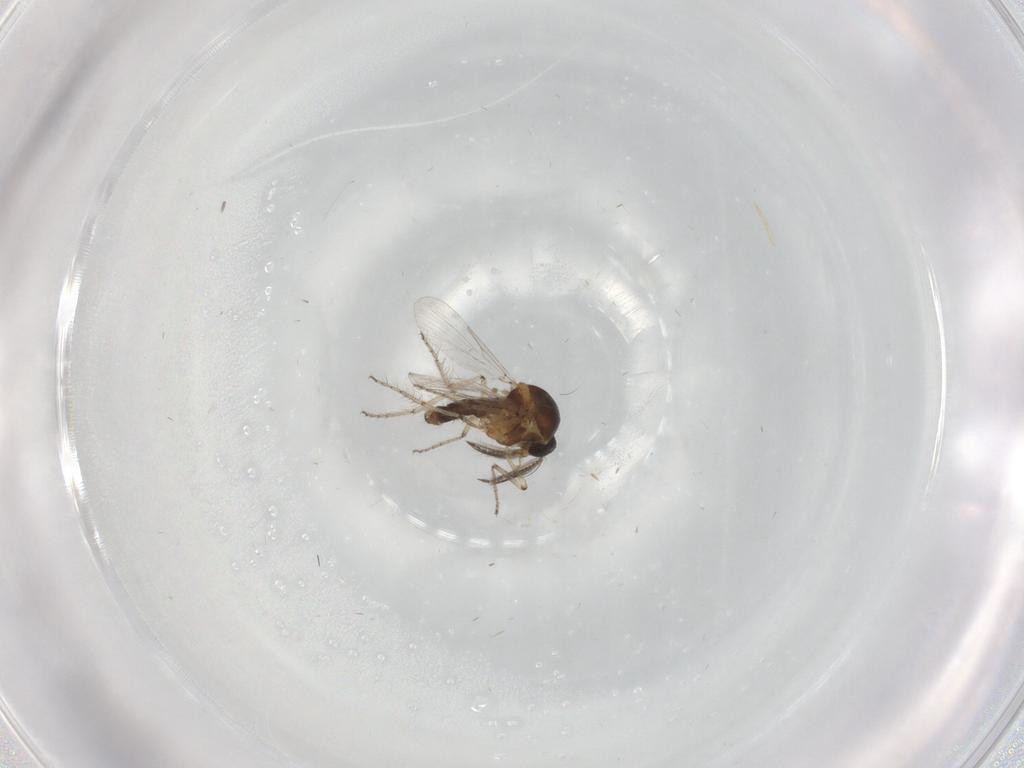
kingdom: Animalia
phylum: Arthropoda
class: Insecta
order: Diptera
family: Ceratopogonidae
